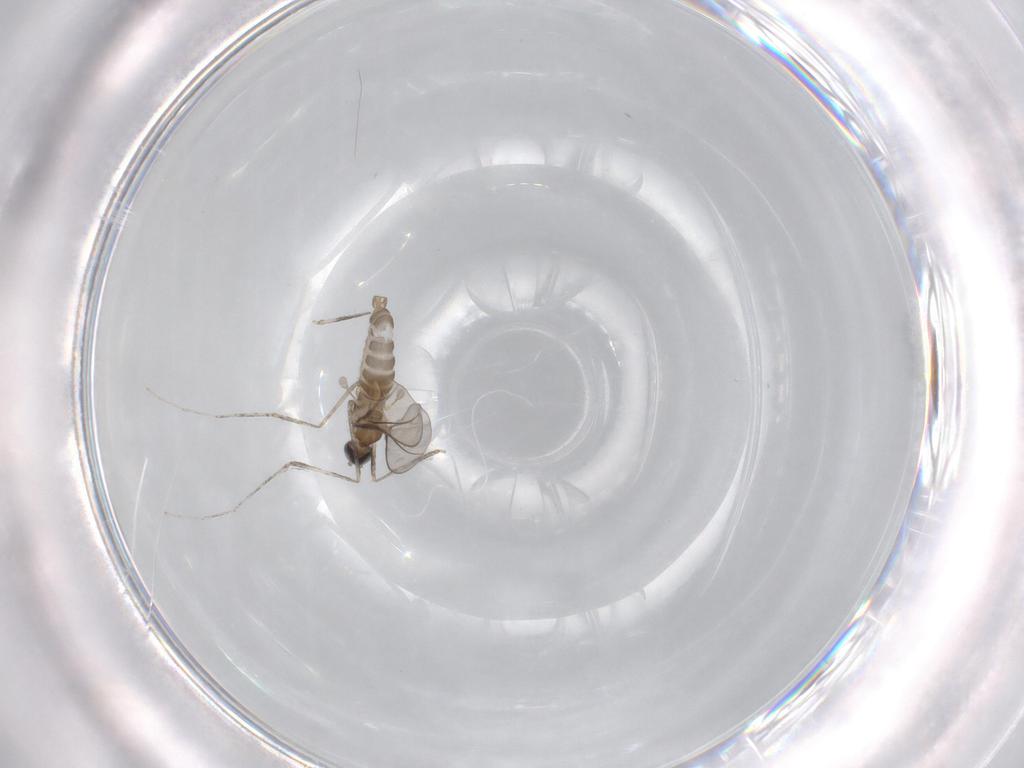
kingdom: Animalia
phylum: Arthropoda
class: Insecta
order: Diptera
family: Cecidomyiidae
